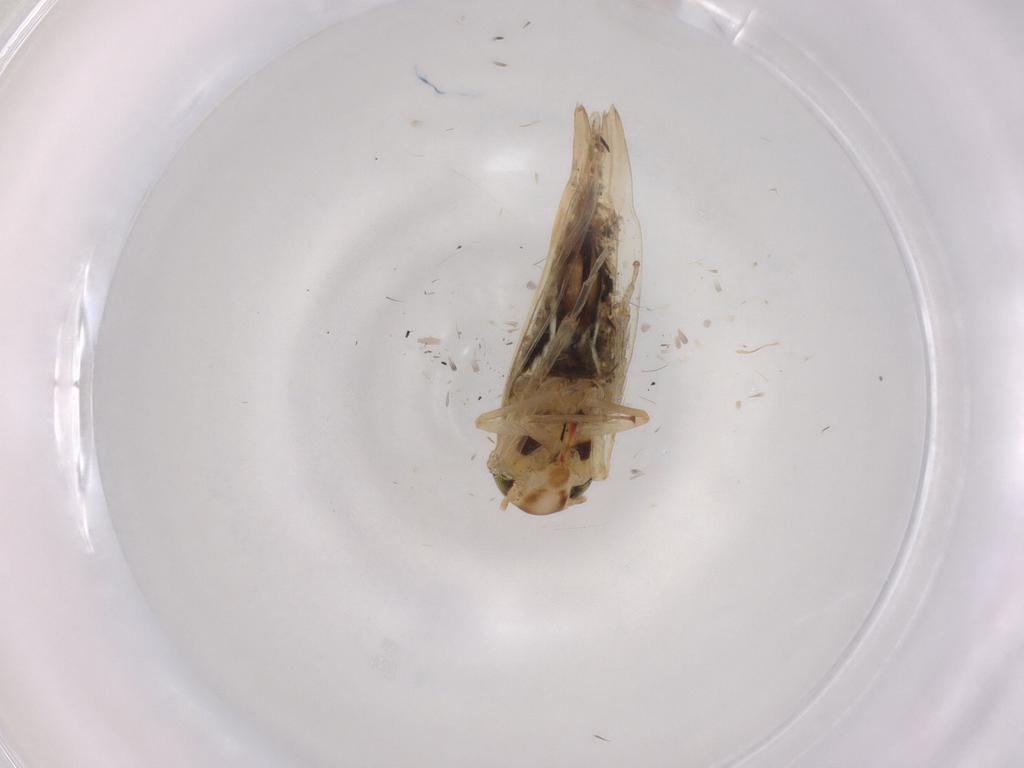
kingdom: Animalia
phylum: Arthropoda
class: Insecta
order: Hemiptera
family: Cicadellidae
